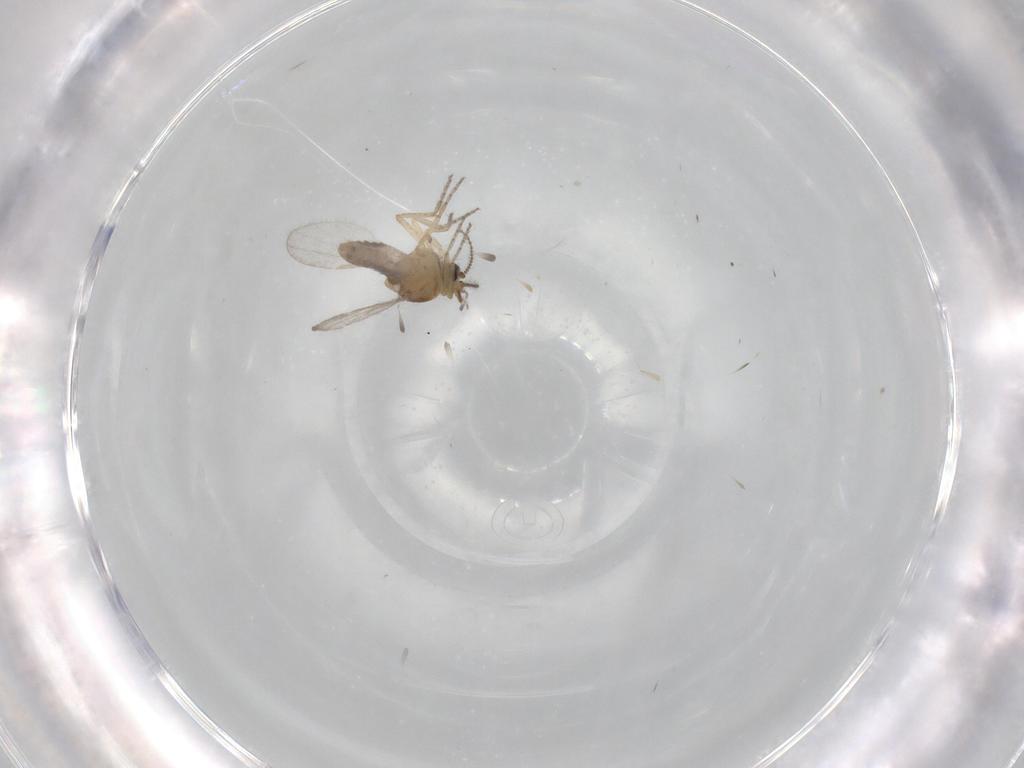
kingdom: Animalia
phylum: Arthropoda
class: Insecta
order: Diptera
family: Ceratopogonidae
